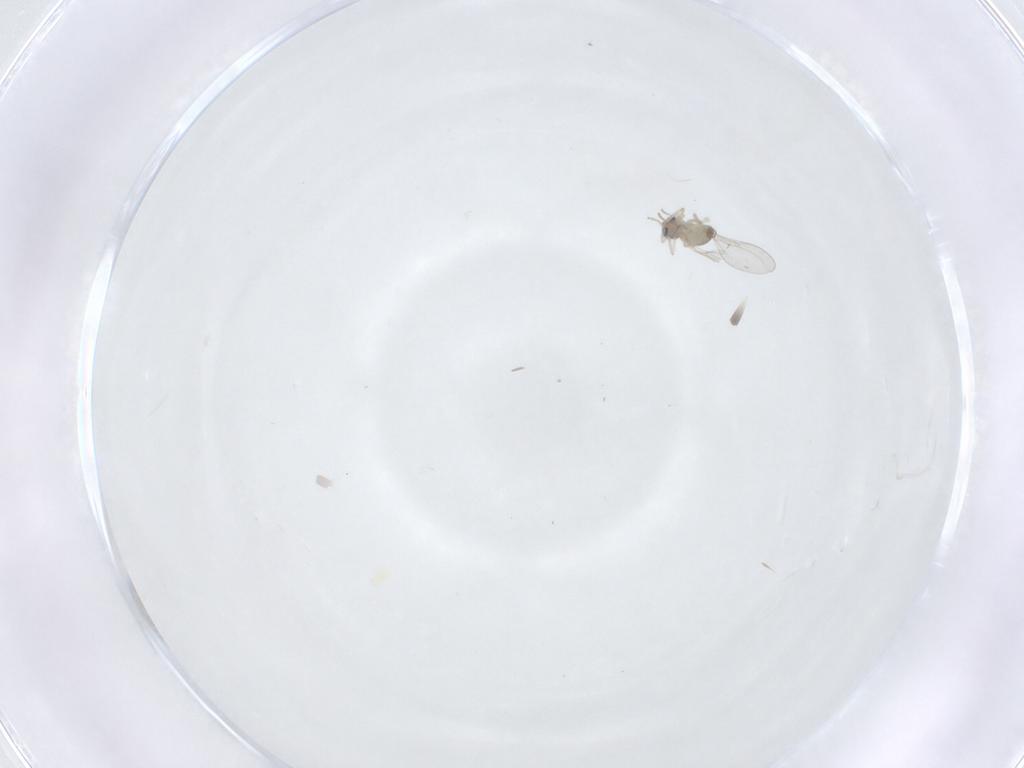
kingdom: Animalia
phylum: Arthropoda
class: Insecta
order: Diptera
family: Cecidomyiidae
